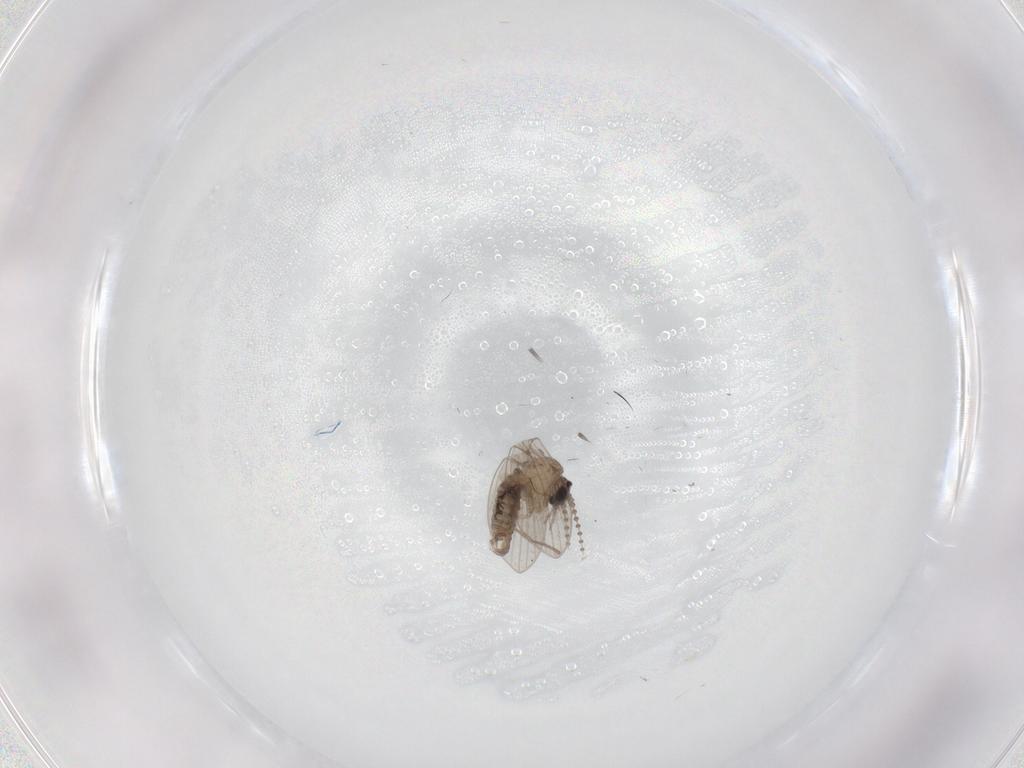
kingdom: Animalia
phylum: Arthropoda
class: Insecta
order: Diptera
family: Psychodidae
